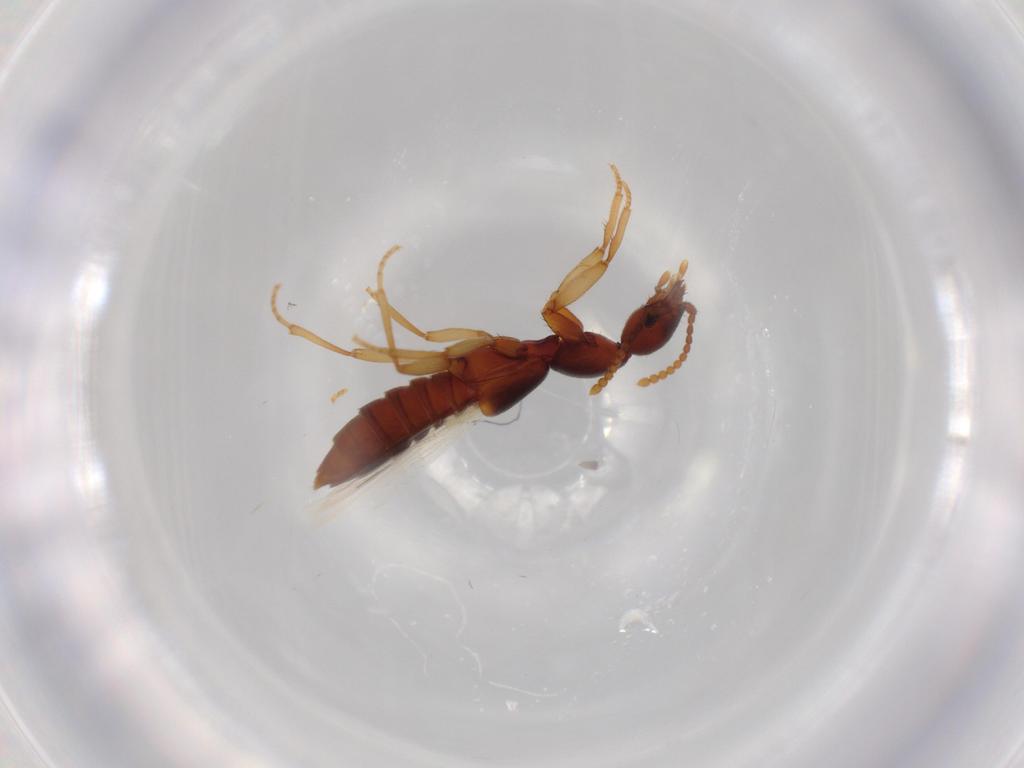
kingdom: Animalia
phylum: Arthropoda
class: Insecta
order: Coleoptera
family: Staphylinidae
